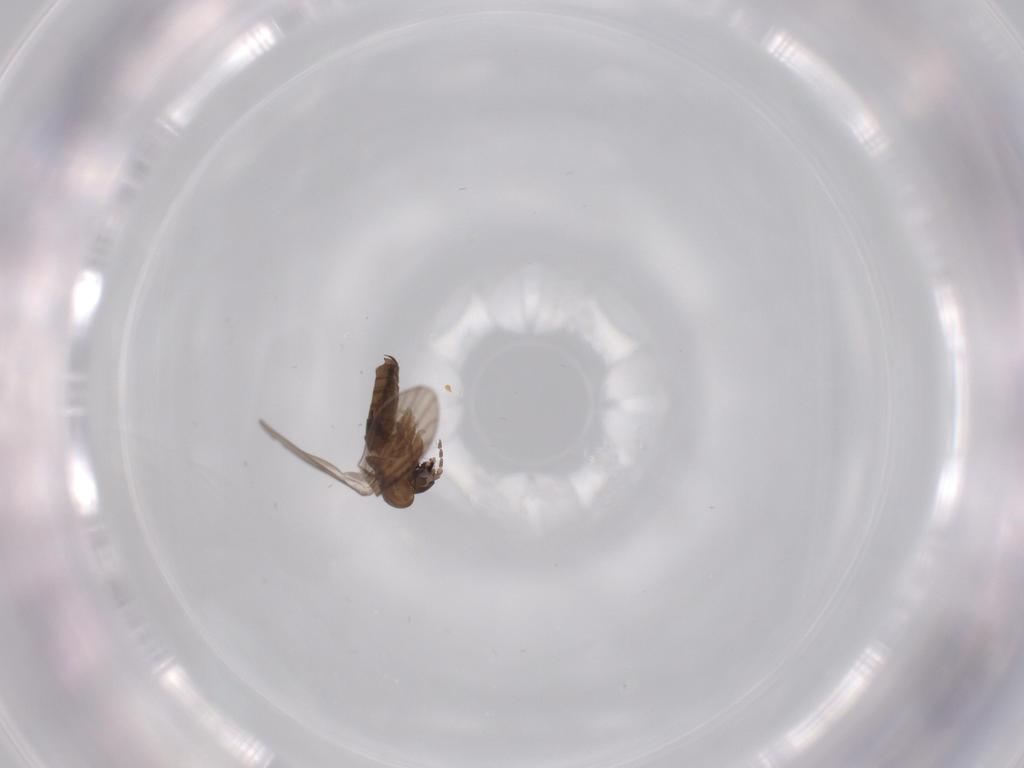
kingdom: Animalia
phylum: Arthropoda
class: Insecta
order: Diptera
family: Psychodidae
